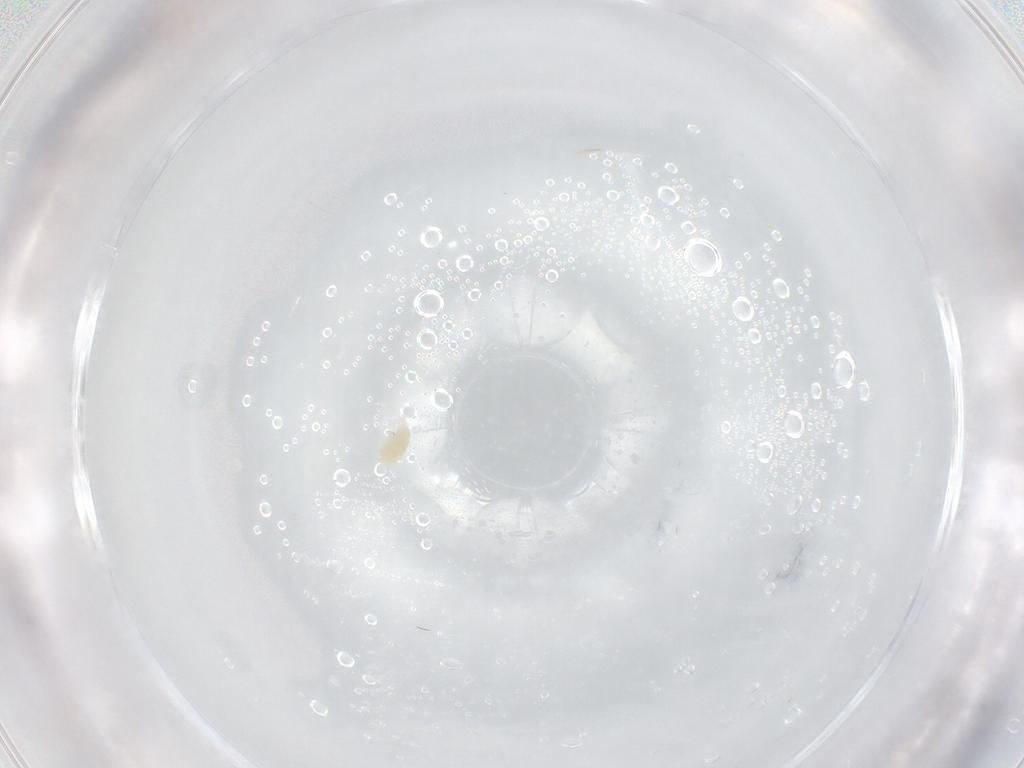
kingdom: Animalia
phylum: Arthropoda
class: Arachnida
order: Trombidiformes
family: Eupodidae
